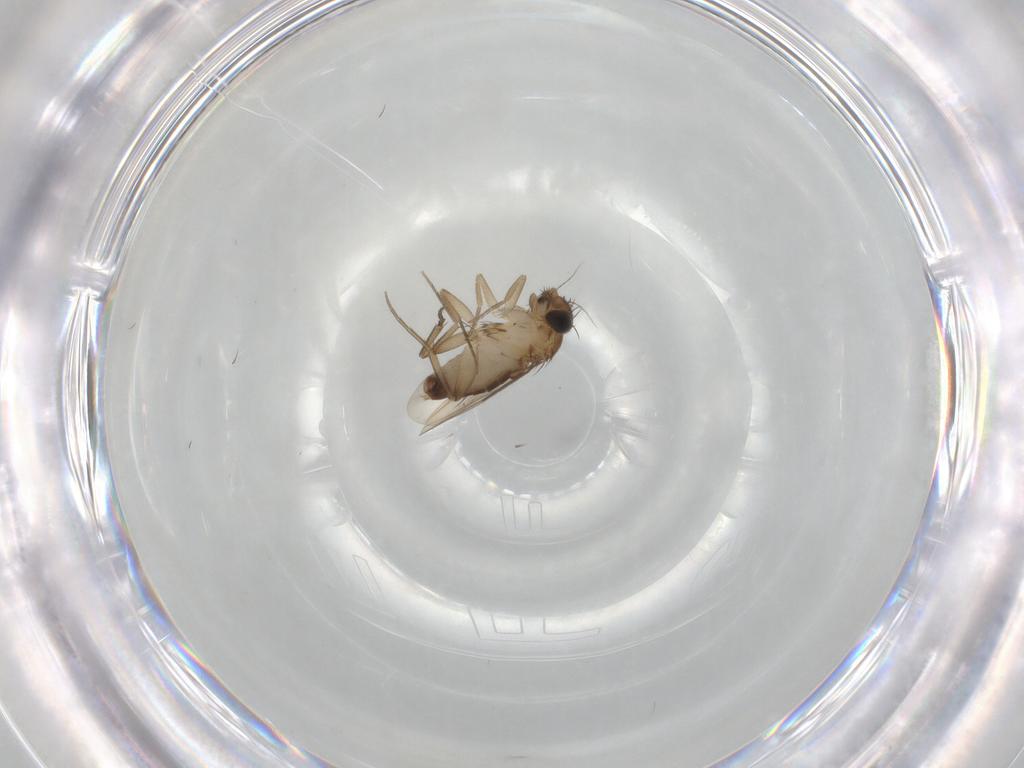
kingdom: Animalia
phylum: Arthropoda
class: Insecta
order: Diptera
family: Phoridae
